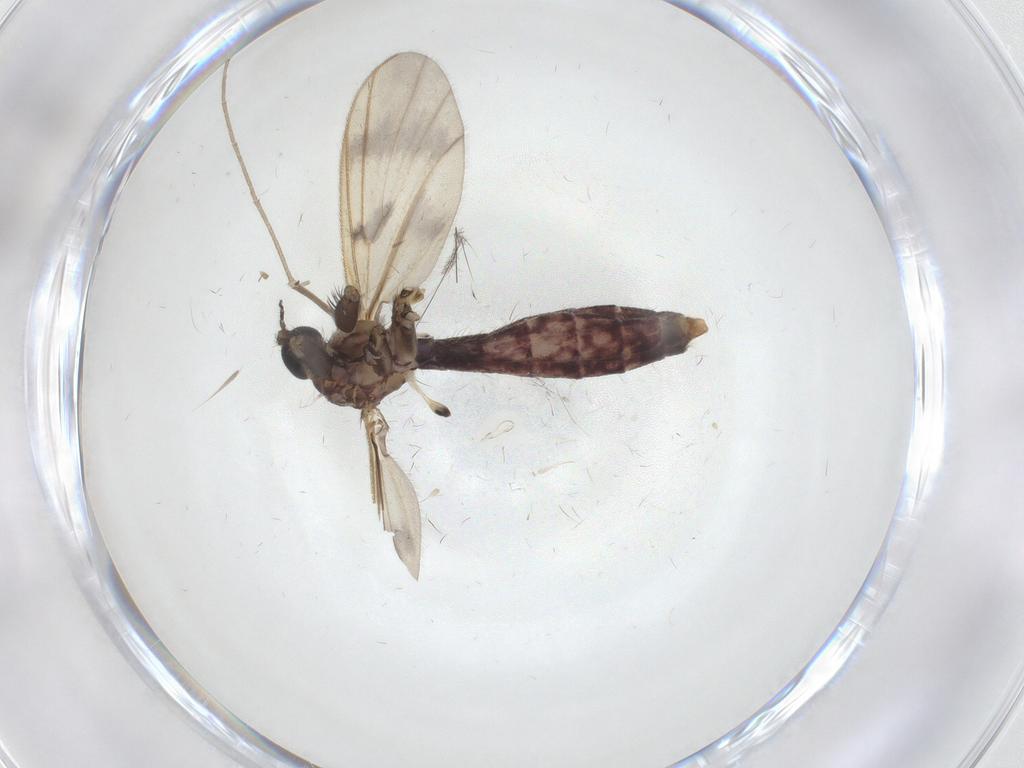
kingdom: Animalia
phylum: Arthropoda
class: Insecta
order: Diptera
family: Mycetophilidae
